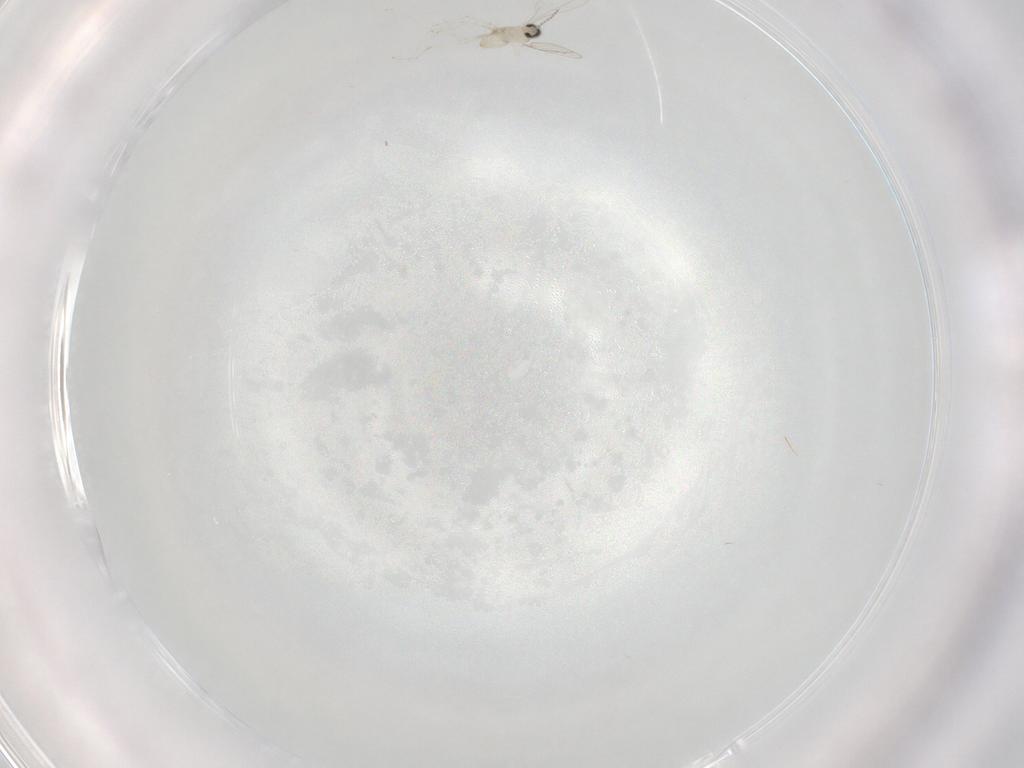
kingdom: Animalia
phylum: Arthropoda
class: Insecta
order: Diptera
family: Cecidomyiidae
